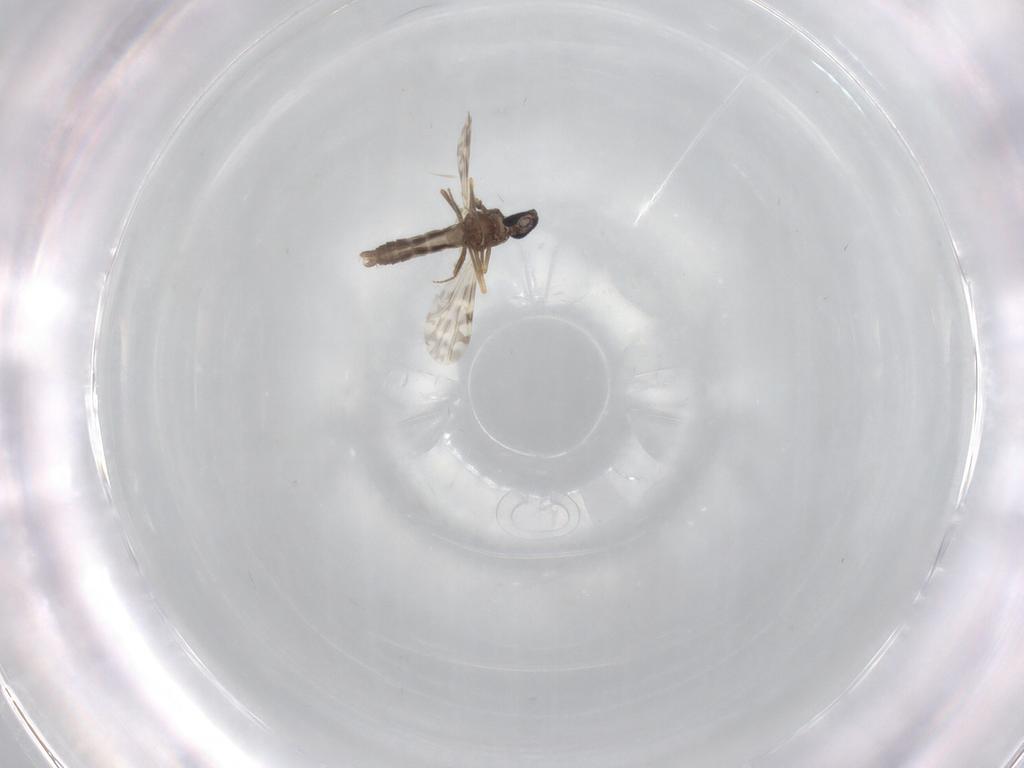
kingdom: Animalia
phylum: Arthropoda
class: Insecta
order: Diptera
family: Ceratopogonidae
